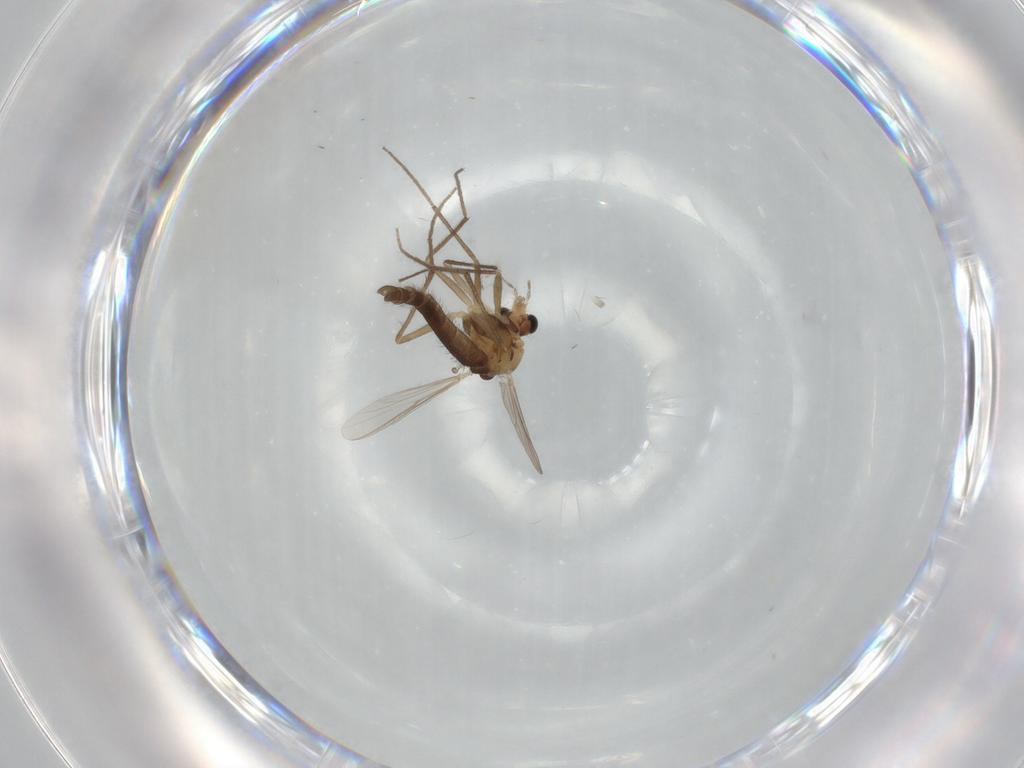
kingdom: Animalia
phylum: Arthropoda
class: Insecta
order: Diptera
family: Chironomidae
